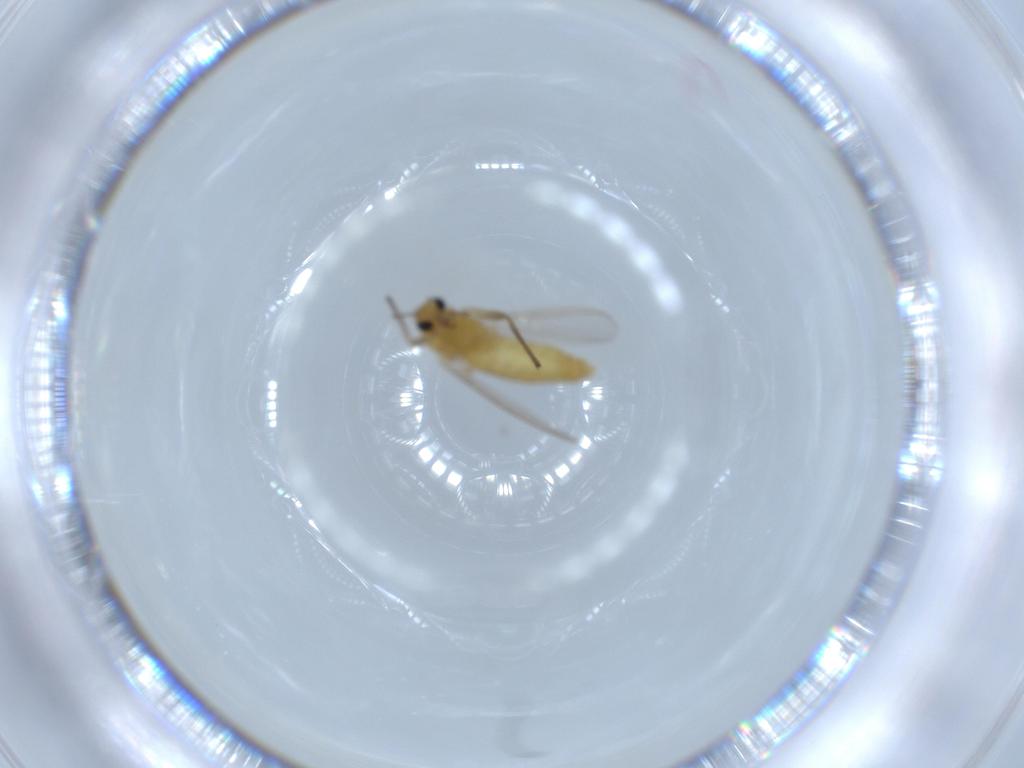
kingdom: Animalia
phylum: Arthropoda
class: Insecta
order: Diptera
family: Chironomidae
